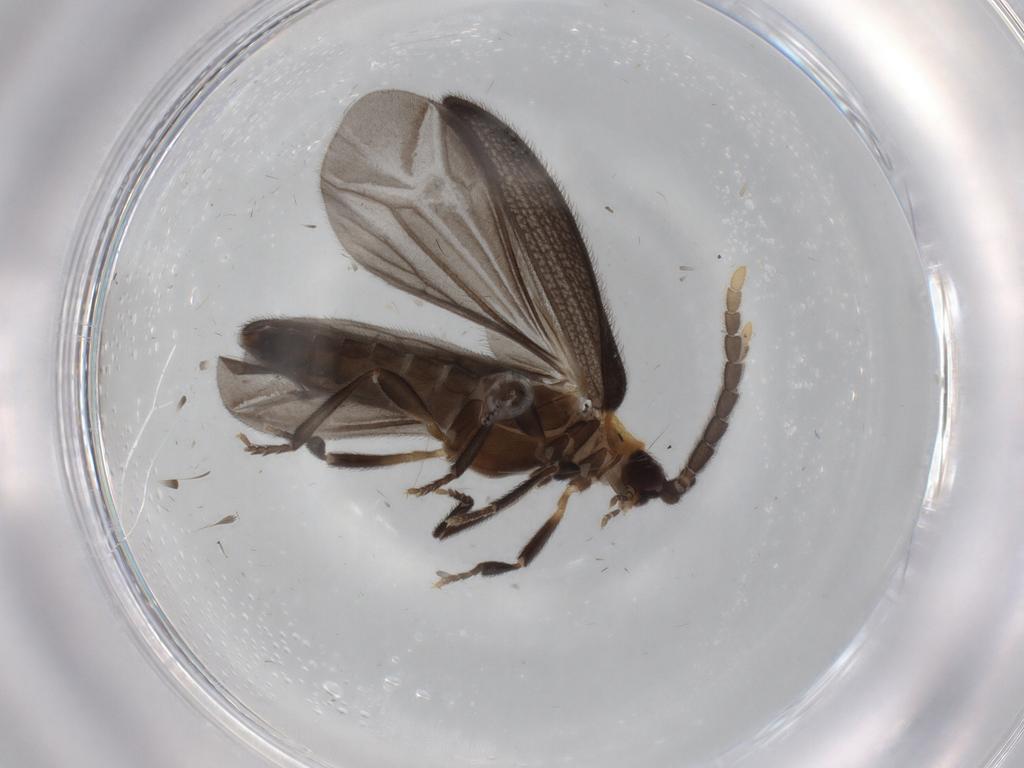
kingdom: Animalia
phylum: Arthropoda
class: Insecta
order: Coleoptera
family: Lycidae
